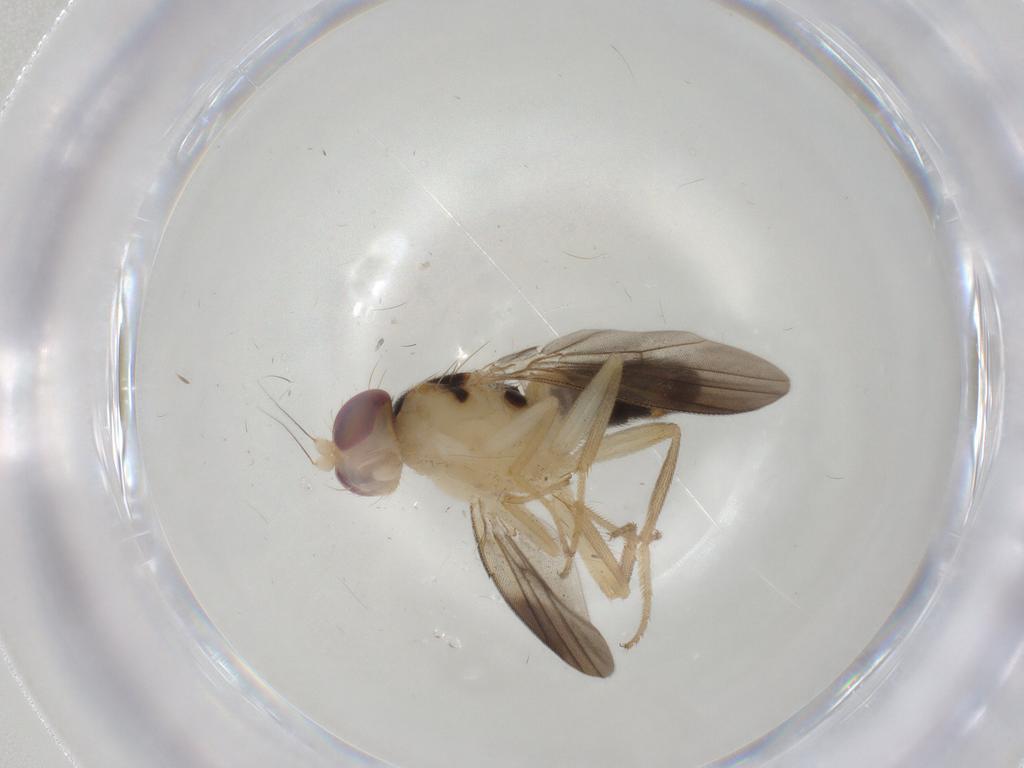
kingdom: Animalia
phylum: Arthropoda
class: Insecta
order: Diptera
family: Clusiidae
